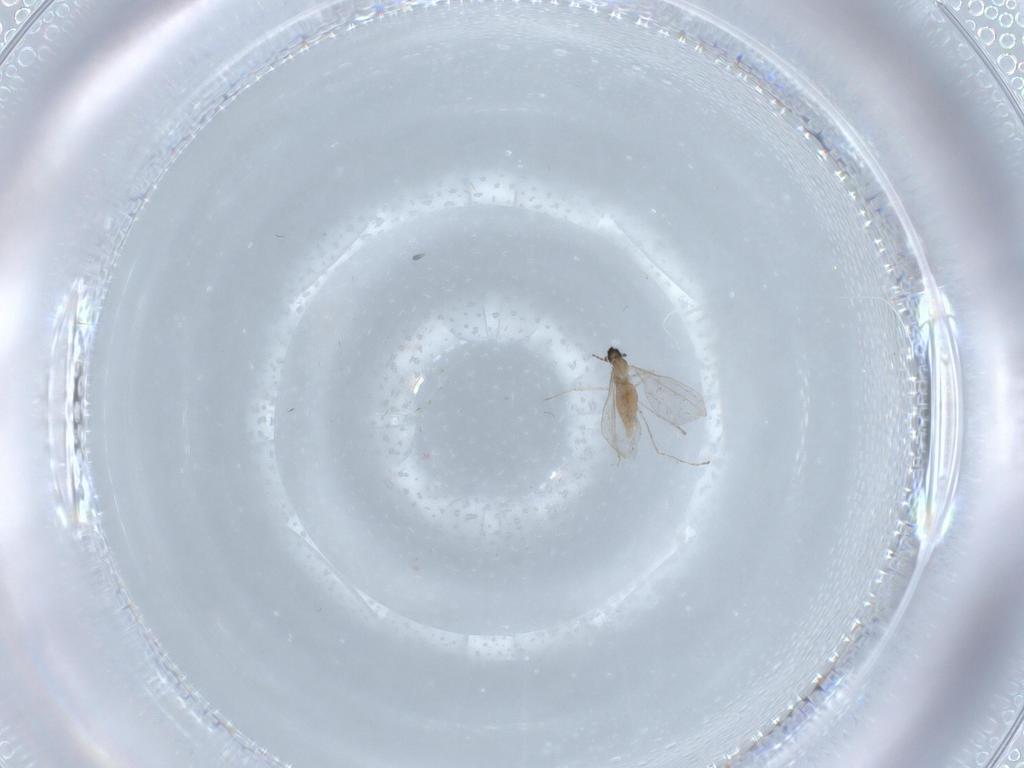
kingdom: Animalia
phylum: Arthropoda
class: Insecta
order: Diptera
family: Cecidomyiidae
